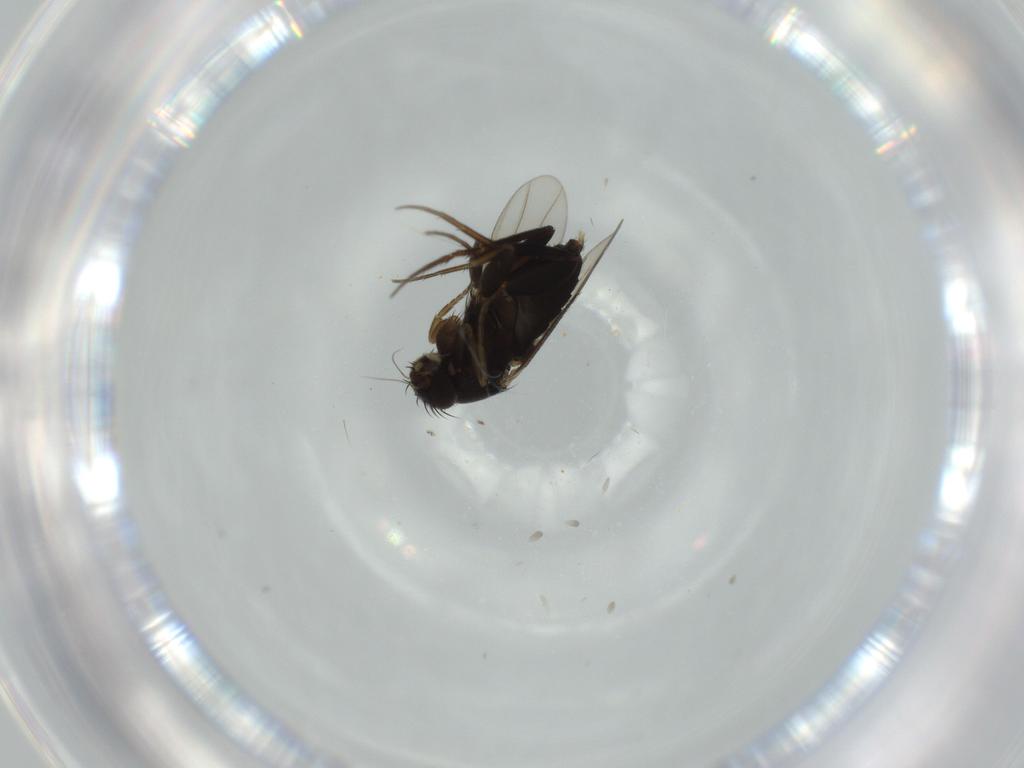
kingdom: Animalia
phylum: Arthropoda
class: Insecta
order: Diptera
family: Phoridae
